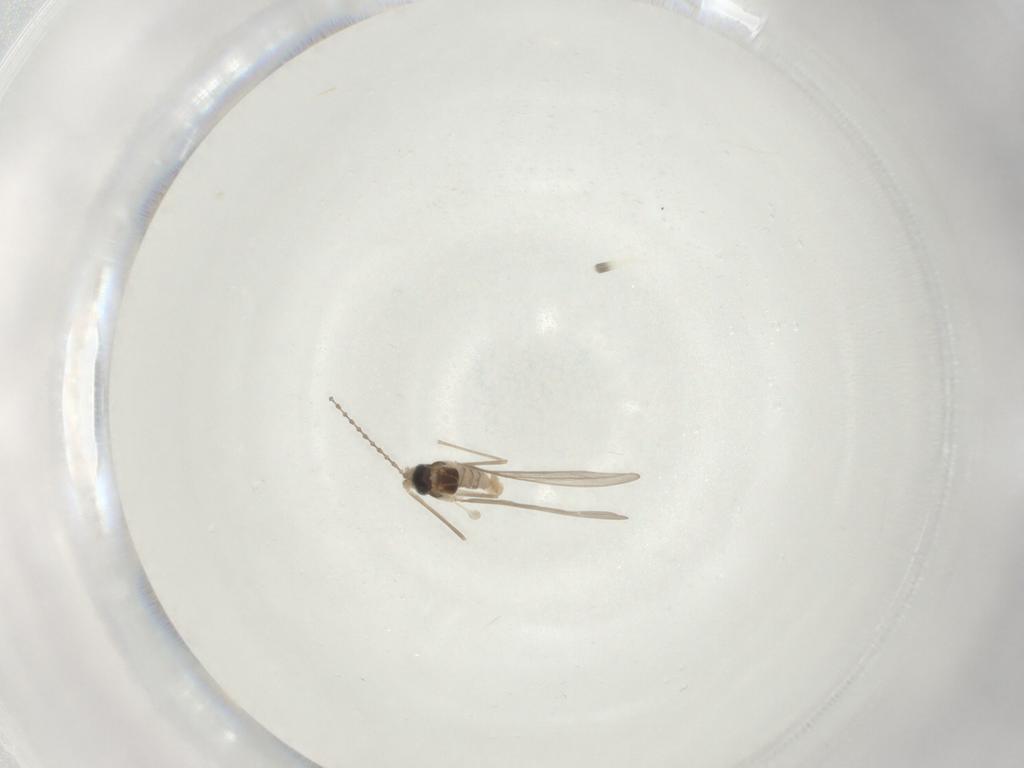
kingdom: Animalia
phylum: Arthropoda
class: Insecta
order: Diptera
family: Cecidomyiidae
